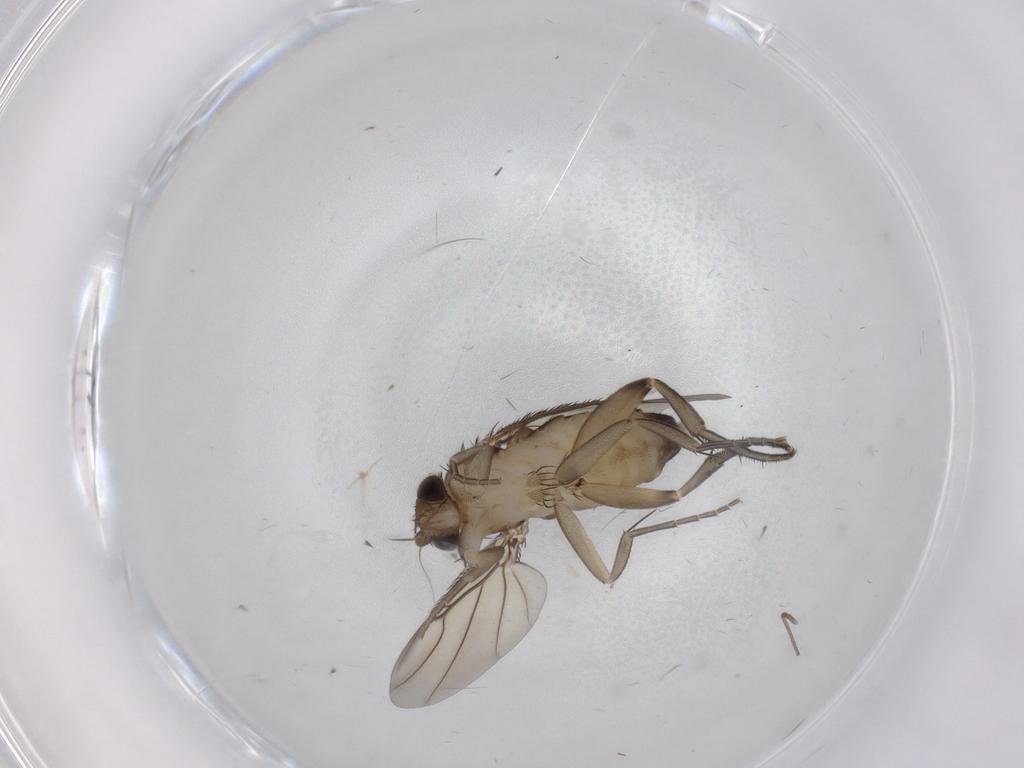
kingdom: Animalia
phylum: Arthropoda
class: Insecta
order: Diptera
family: Phoridae
